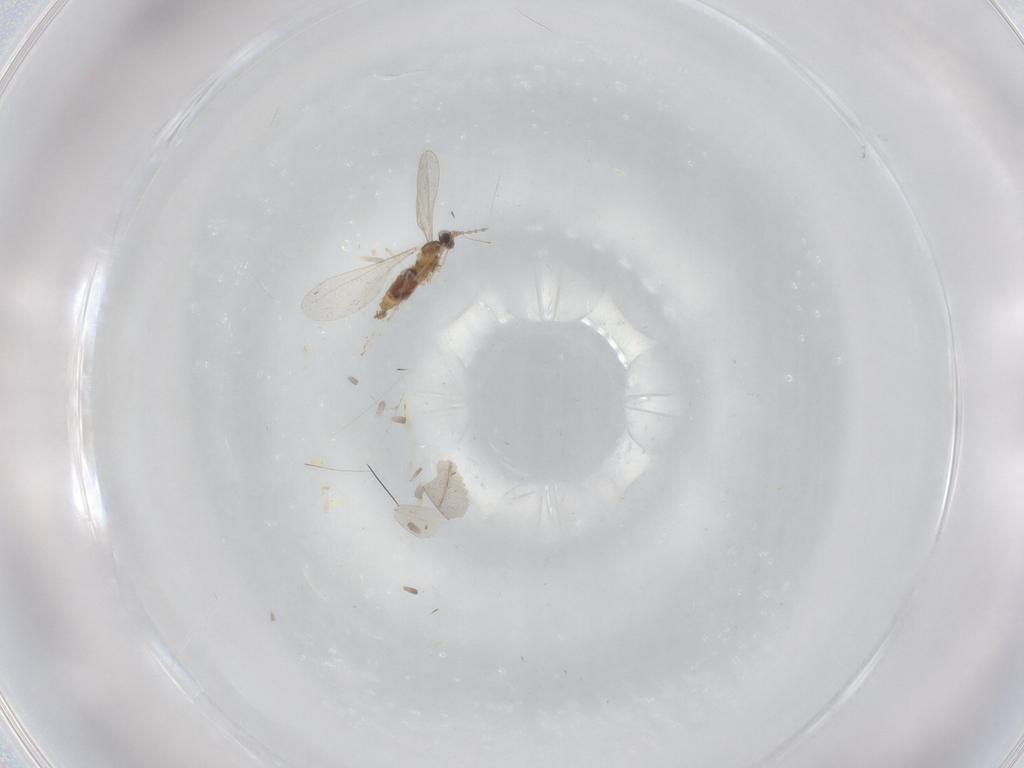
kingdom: Animalia
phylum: Arthropoda
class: Insecta
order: Diptera
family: Cecidomyiidae
